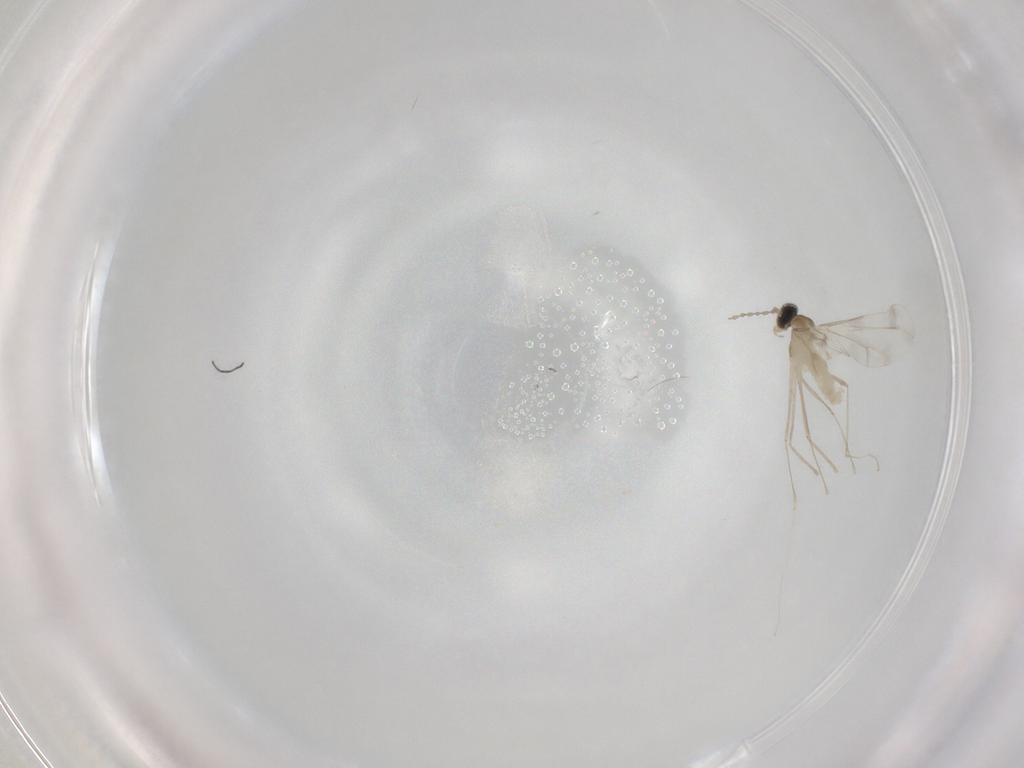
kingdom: Animalia
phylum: Arthropoda
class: Insecta
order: Diptera
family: Cecidomyiidae
